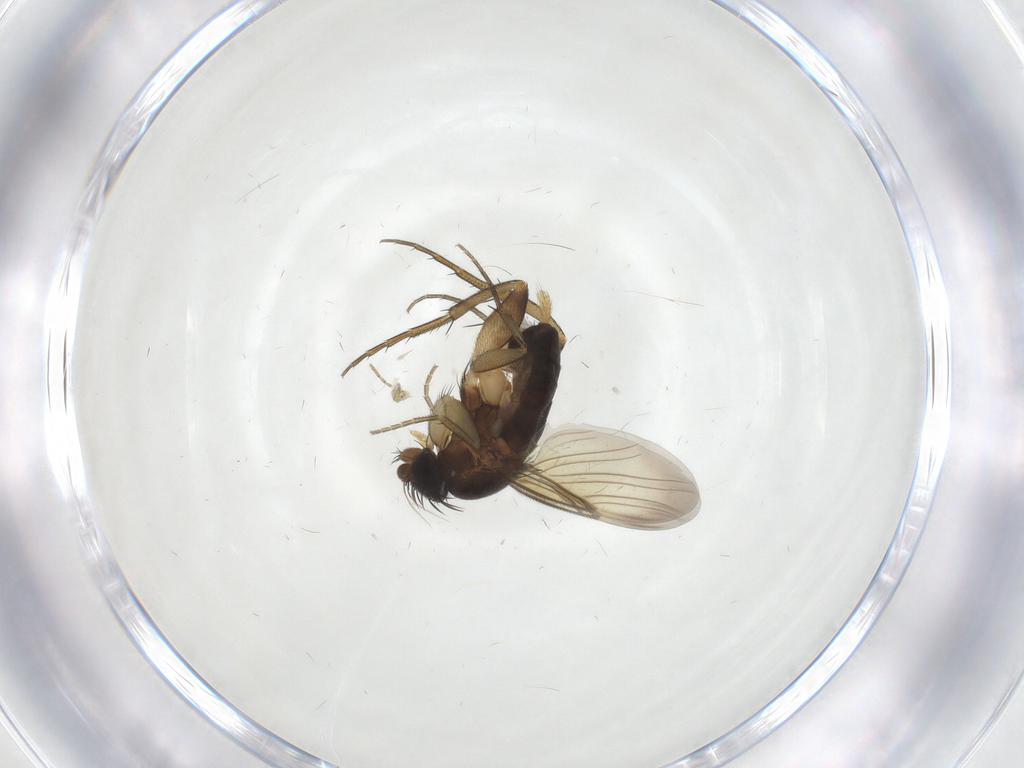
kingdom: Animalia
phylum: Arthropoda
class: Insecta
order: Diptera
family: Phoridae
